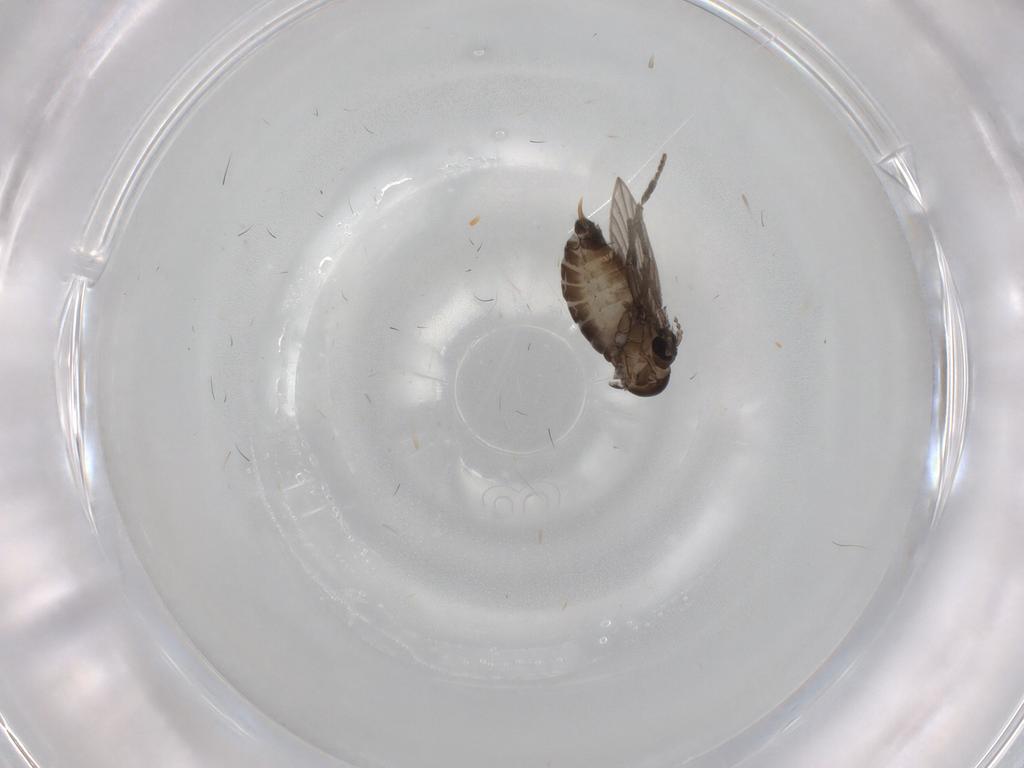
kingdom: Animalia
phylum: Arthropoda
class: Insecta
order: Diptera
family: Psychodidae
